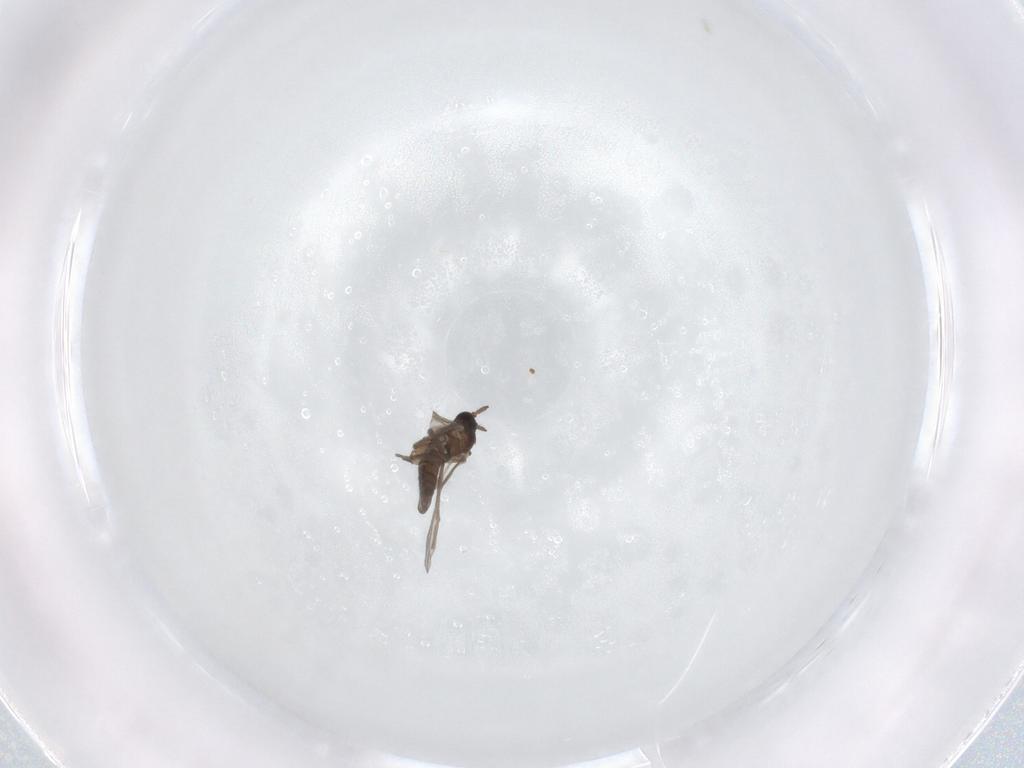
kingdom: Animalia
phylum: Arthropoda
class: Insecta
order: Diptera
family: Sciaridae
